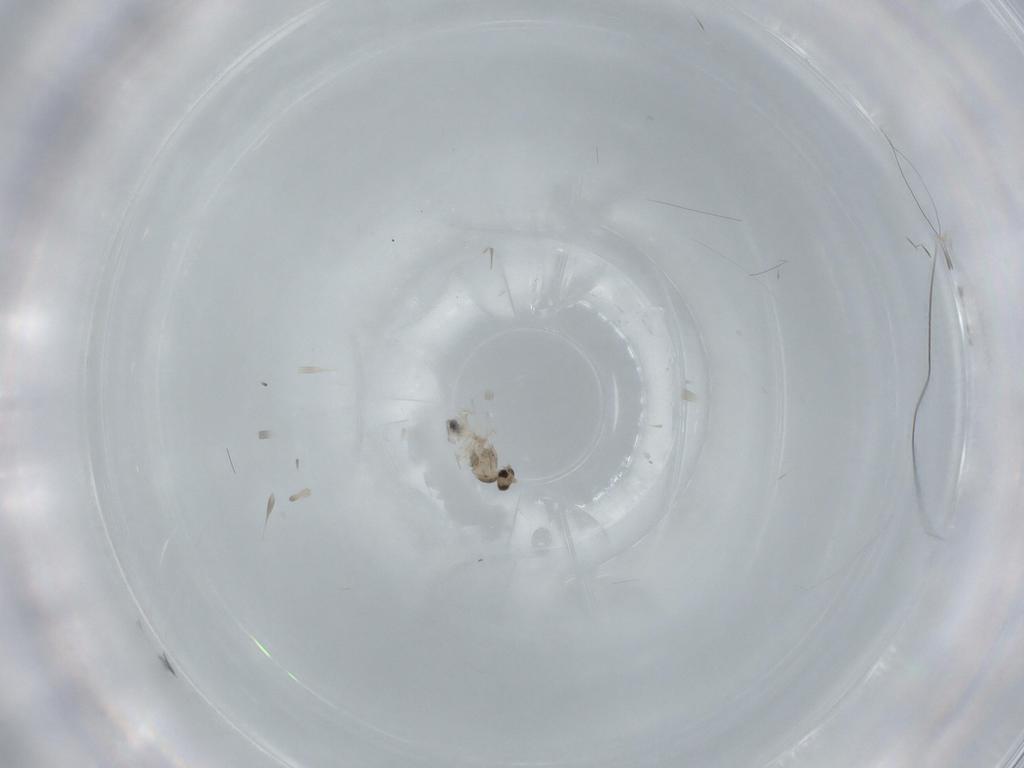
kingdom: Animalia
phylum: Arthropoda
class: Insecta
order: Diptera
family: Cecidomyiidae
